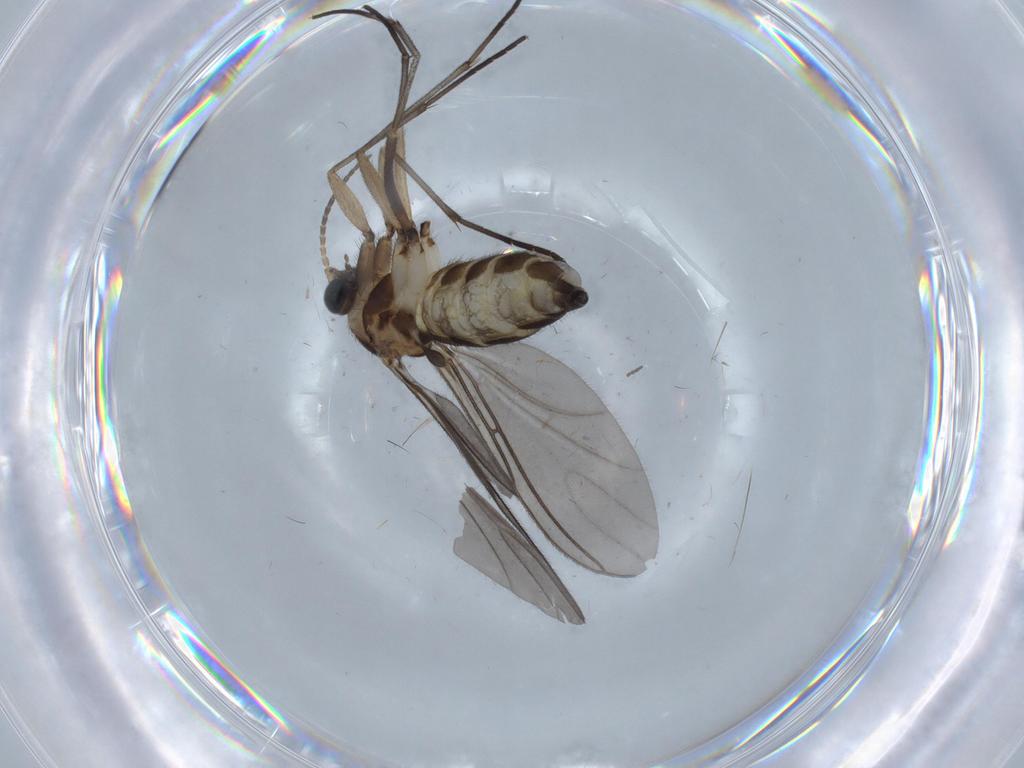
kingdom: Animalia
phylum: Arthropoda
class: Insecta
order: Diptera
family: Sciaridae
